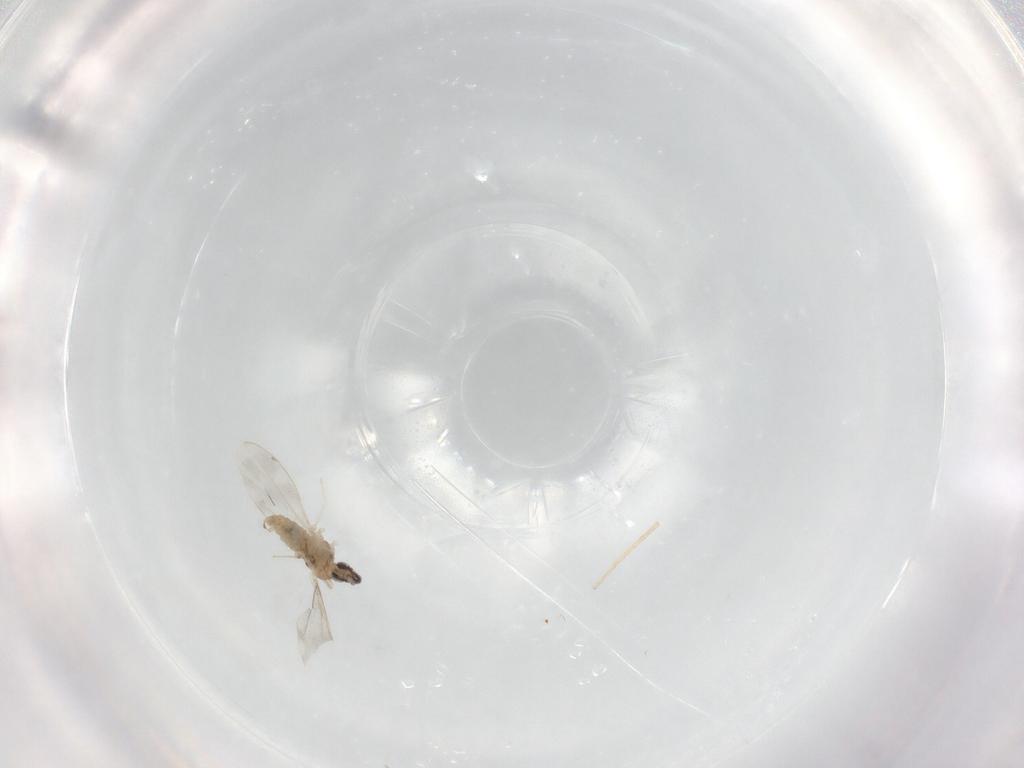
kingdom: Animalia
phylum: Arthropoda
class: Insecta
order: Diptera
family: Cecidomyiidae
